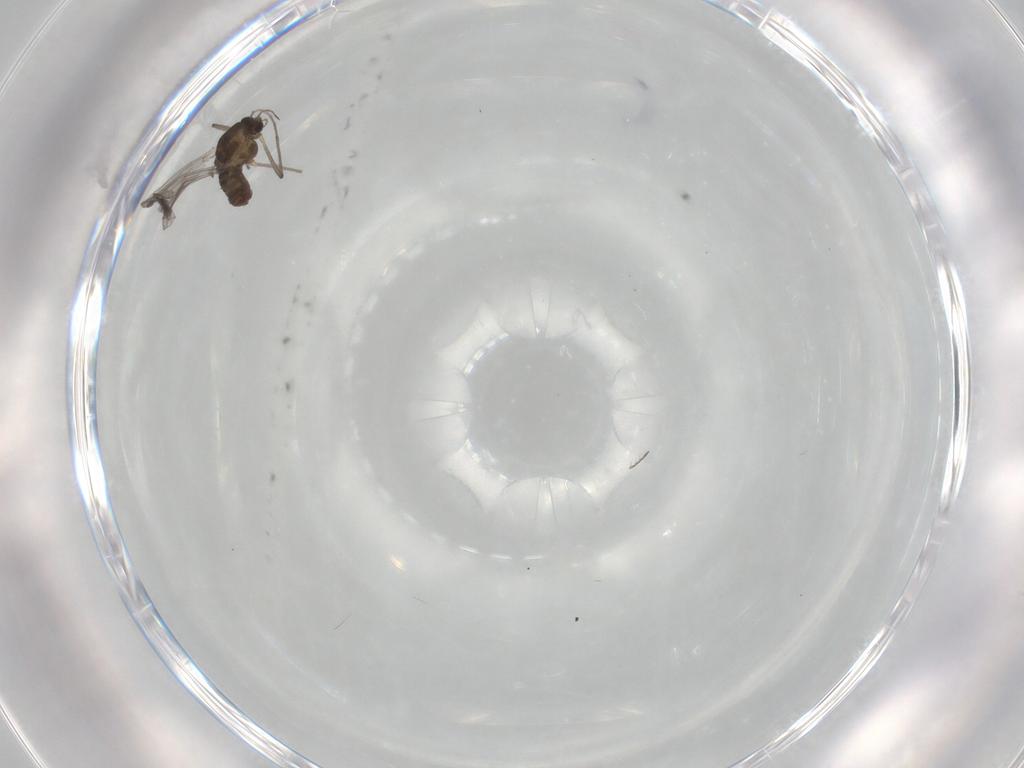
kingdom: Animalia
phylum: Arthropoda
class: Insecta
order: Diptera
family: Chironomidae
